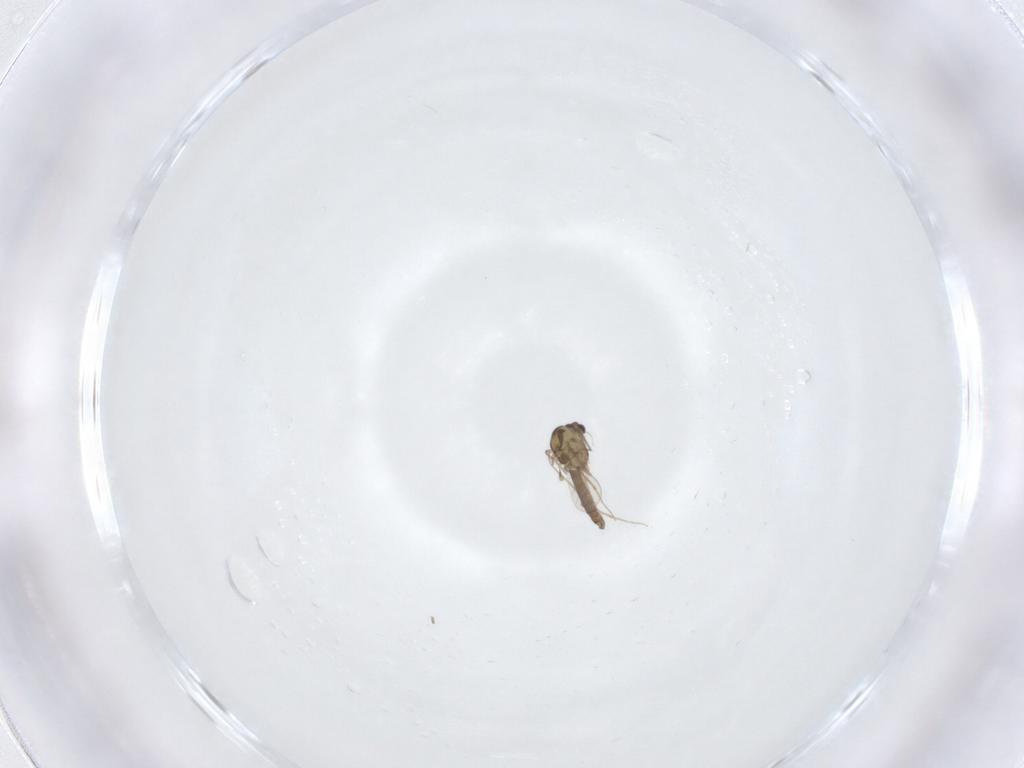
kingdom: Animalia
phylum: Arthropoda
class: Insecta
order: Diptera
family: Chironomidae
